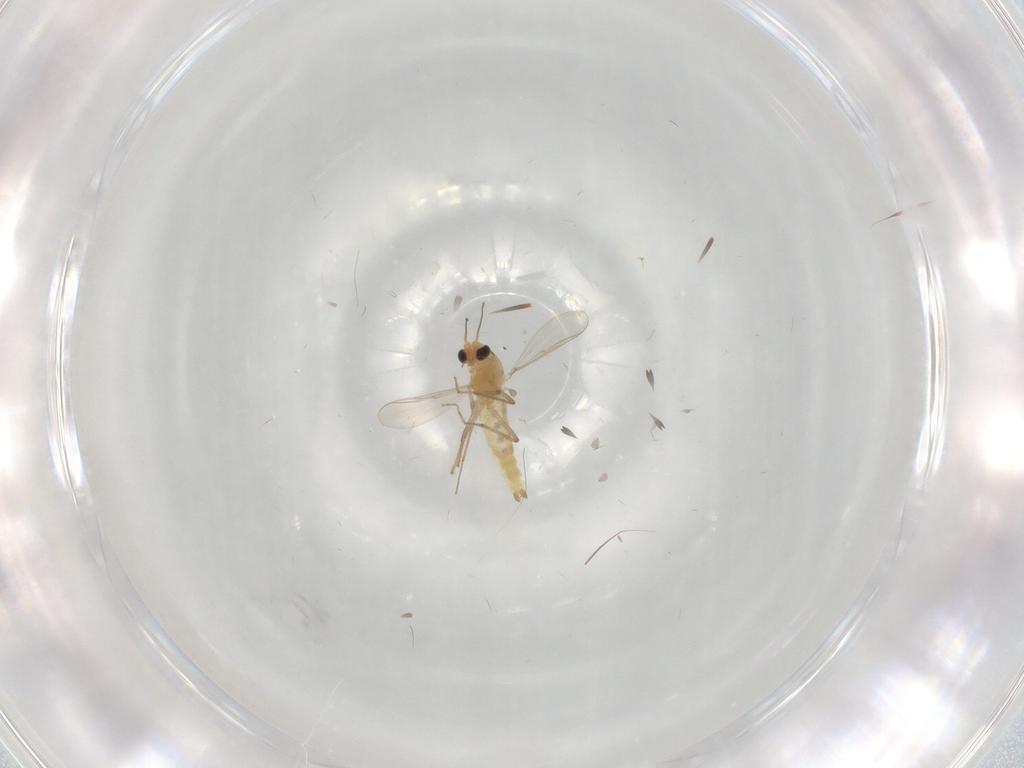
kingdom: Animalia
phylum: Arthropoda
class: Insecta
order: Diptera
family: Chironomidae
